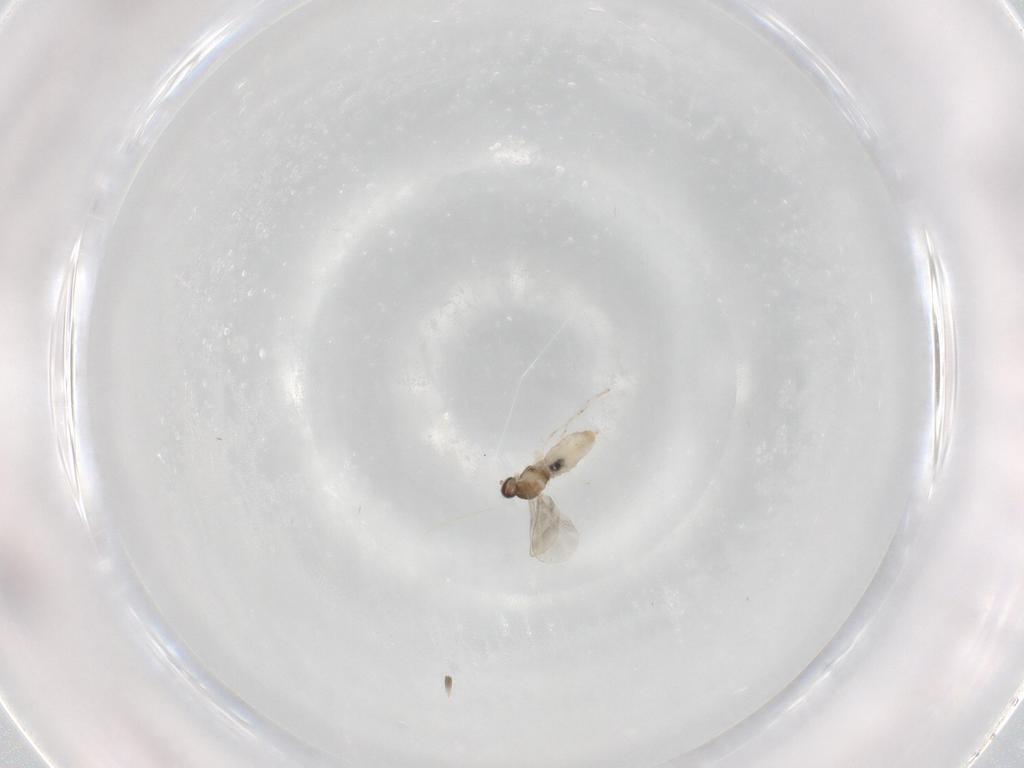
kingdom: Animalia
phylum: Arthropoda
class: Insecta
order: Diptera
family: Cecidomyiidae
